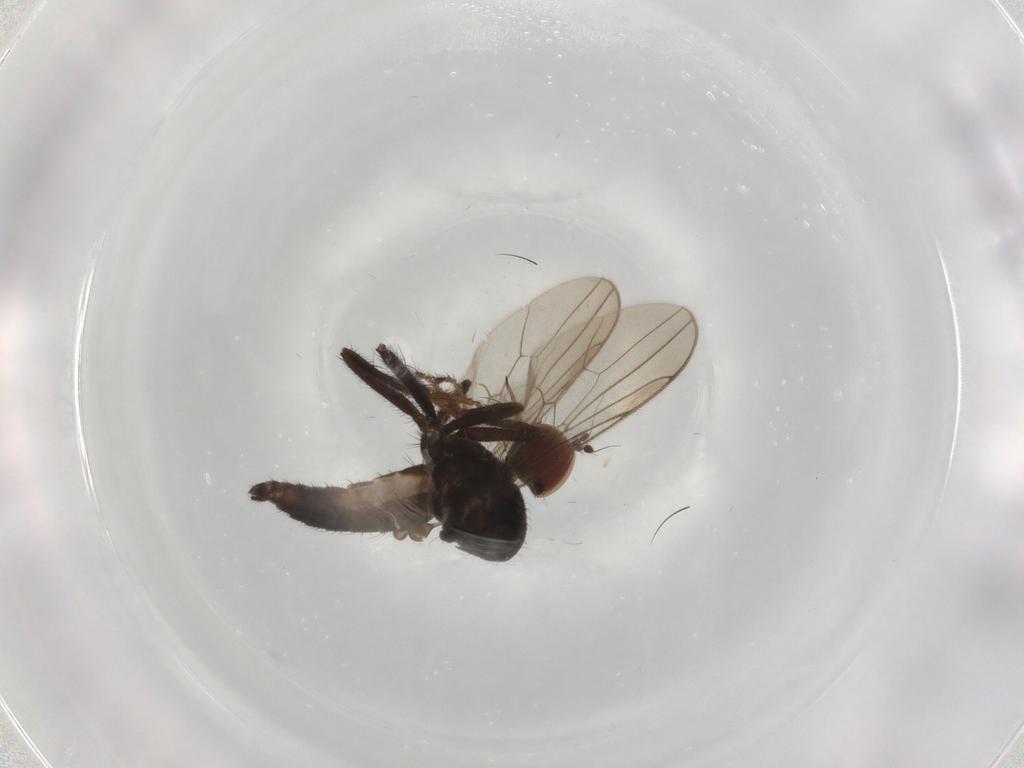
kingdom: Animalia
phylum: Arthropoda
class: Insecta
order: Diptera
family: Hybotidae
